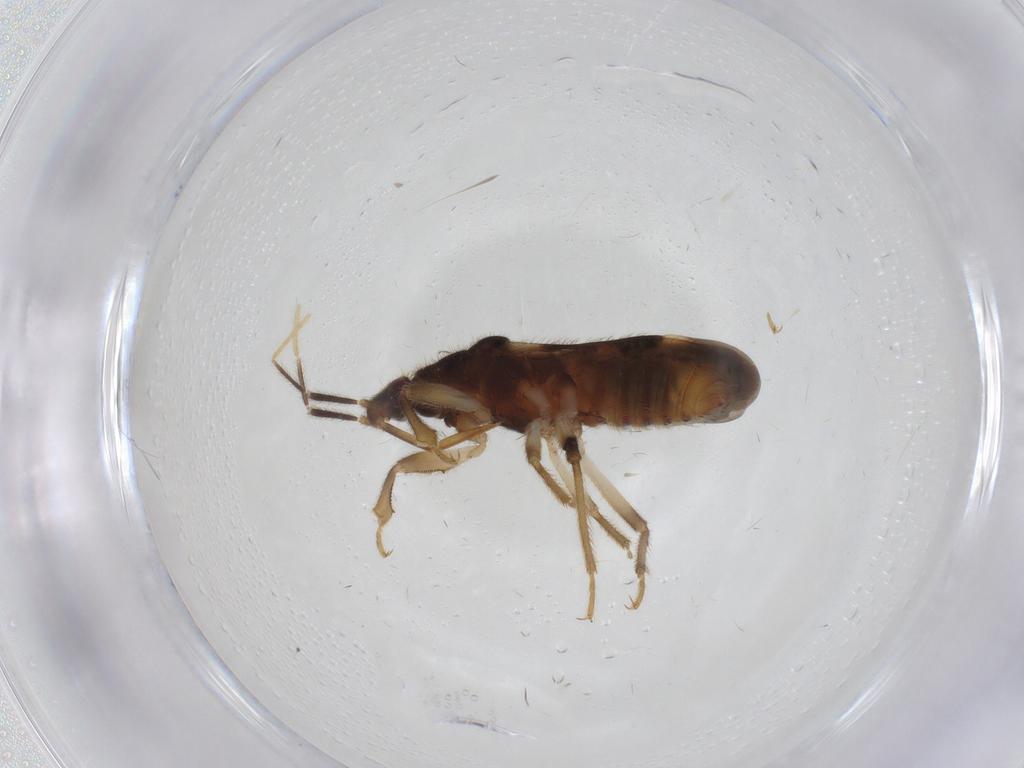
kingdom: Animalia
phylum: Arthropoda
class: Insecta
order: Hemiptera
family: Nabidae
